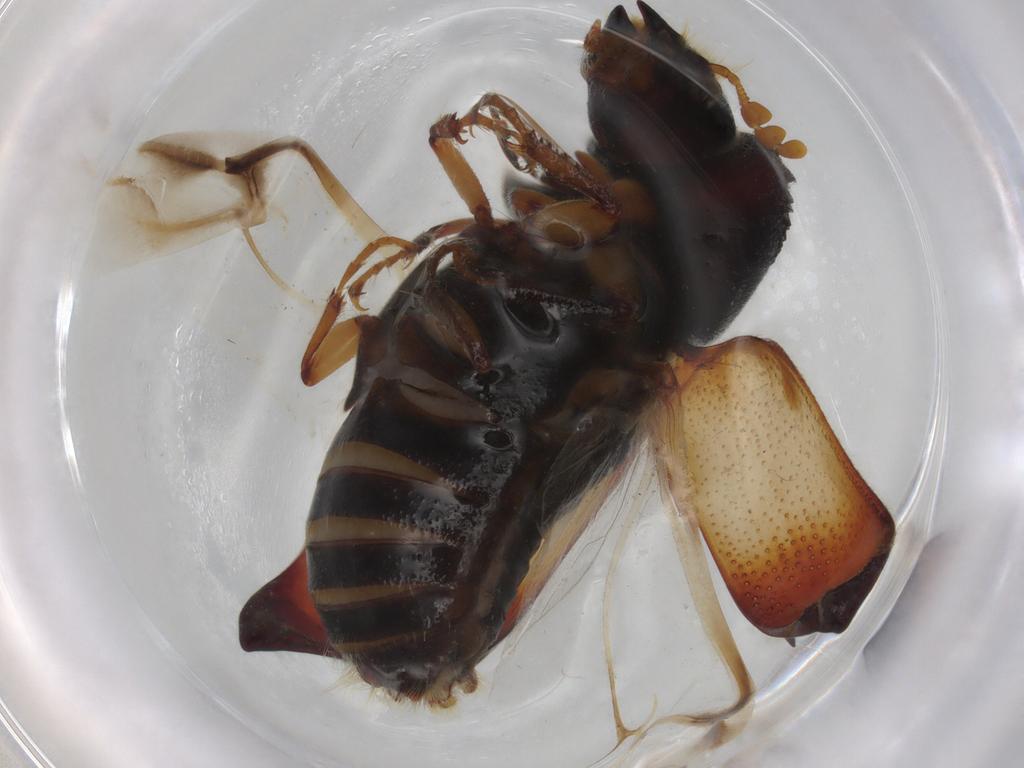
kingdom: Animalia
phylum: Arthropoda
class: Insecta
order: Coleoptera
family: Bostrichidae
